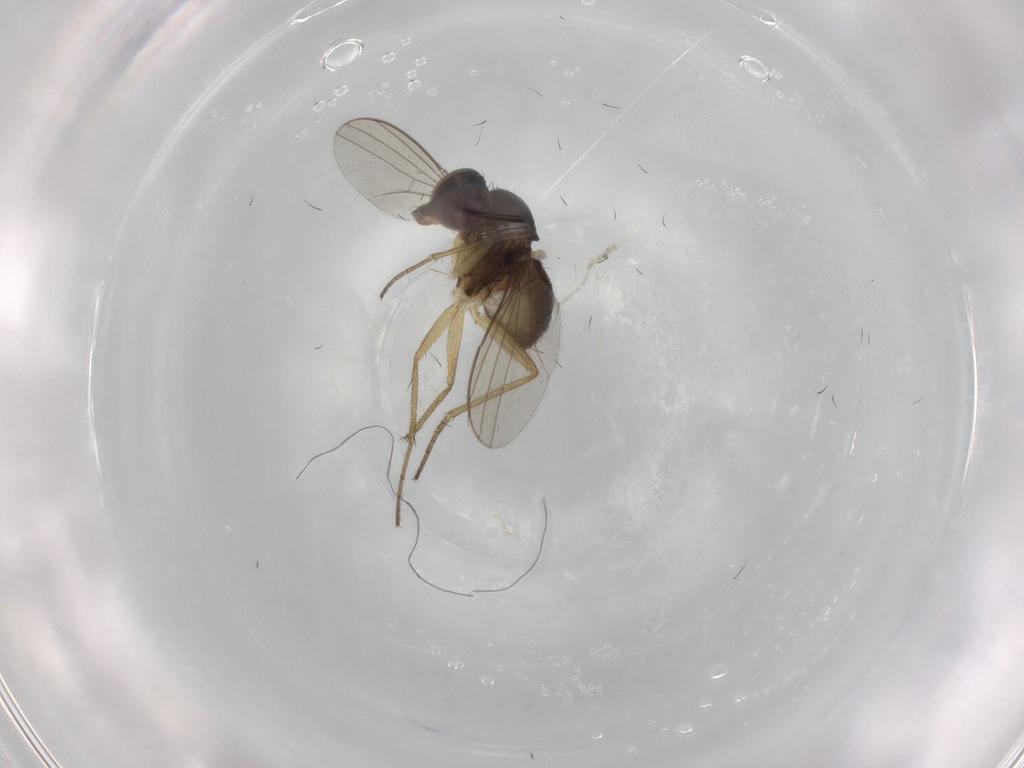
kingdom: Animalia
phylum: Arthropoda
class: Insecta
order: Diptera
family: Dolichopodidae
